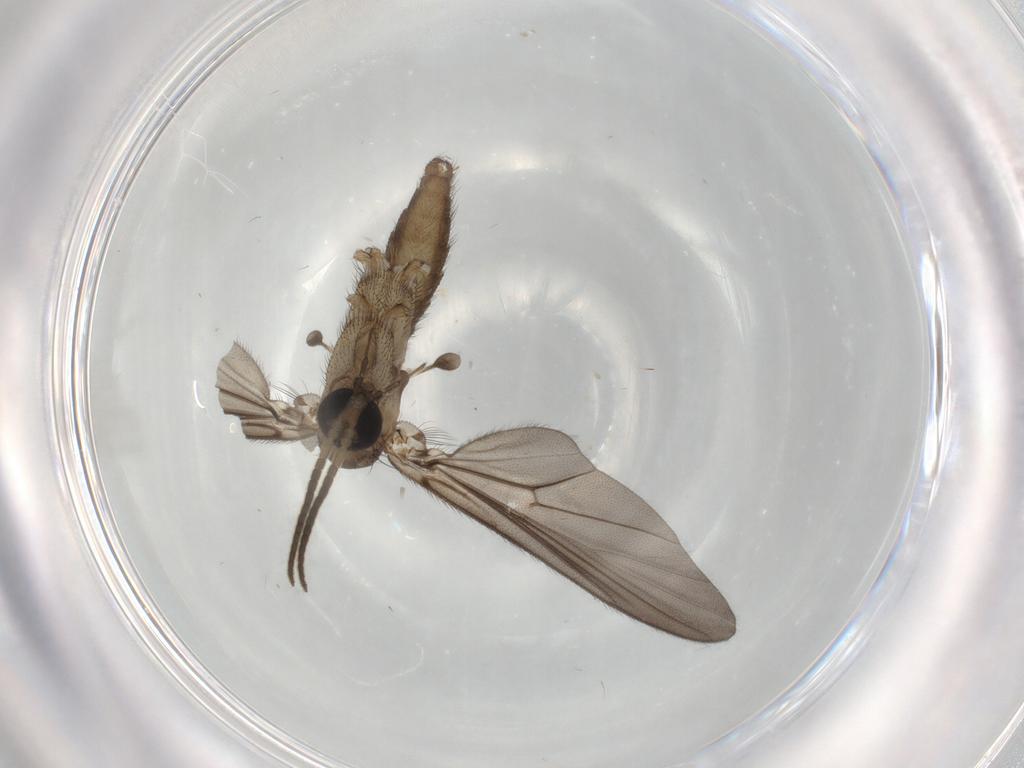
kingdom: Animalia
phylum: Arthropoda
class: Insecta
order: Diptera
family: Sciaridae
